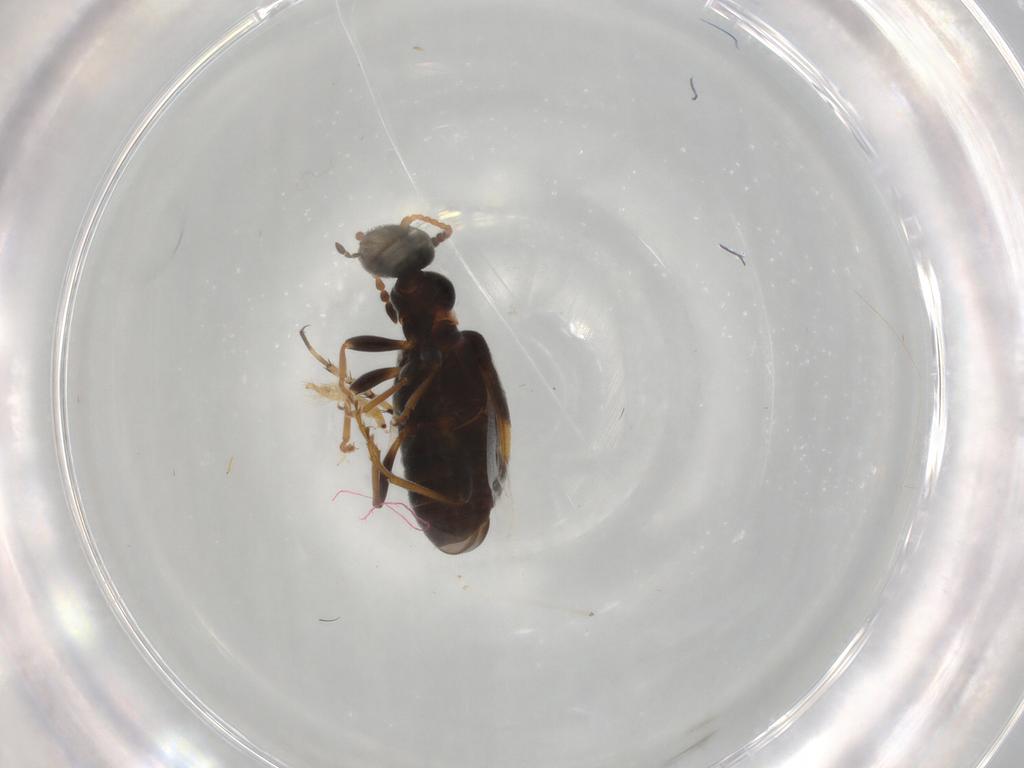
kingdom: Animalia
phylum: Arthropoda
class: Insecta
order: Coleoptera
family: Anthicidae
